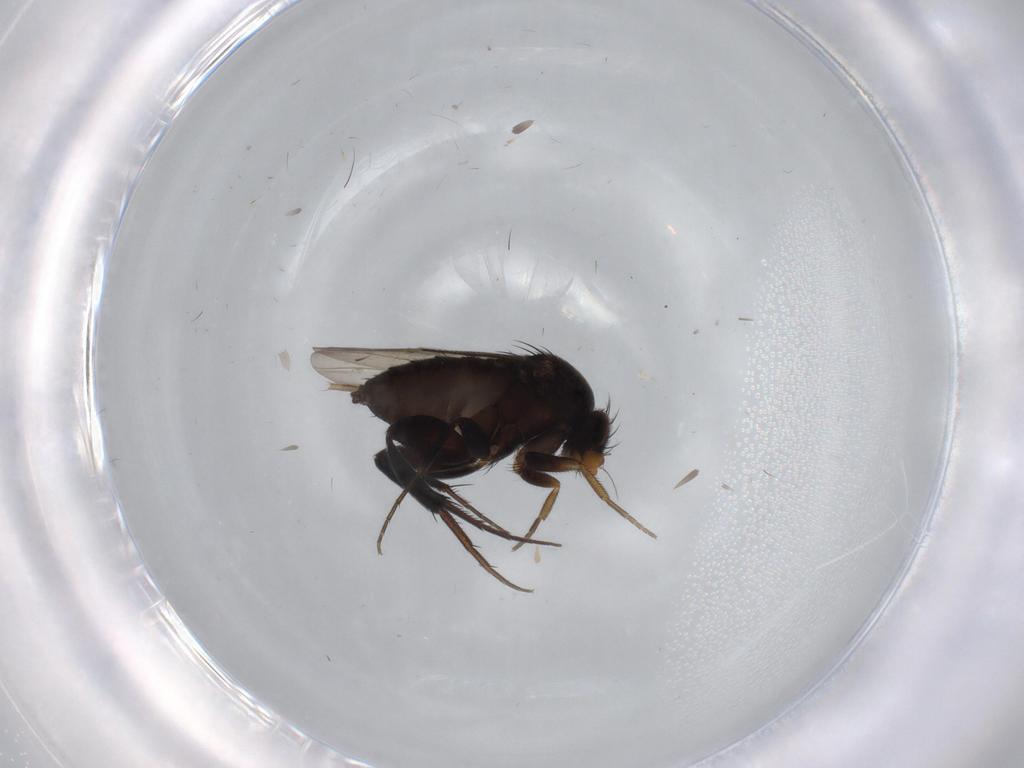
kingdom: Animalia
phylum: Arthropoda
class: Insecta
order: Diptera
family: Phoridae
